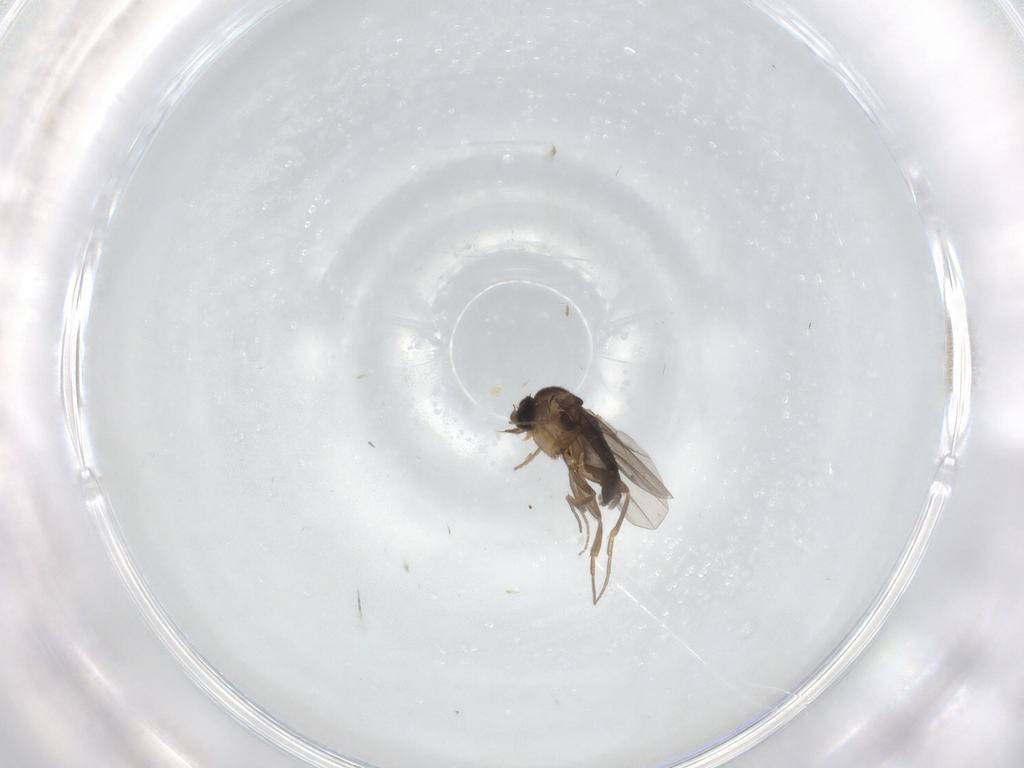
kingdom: Animalia
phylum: Arthropoda
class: Insecta
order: Diptera
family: Cecidomyiidae
